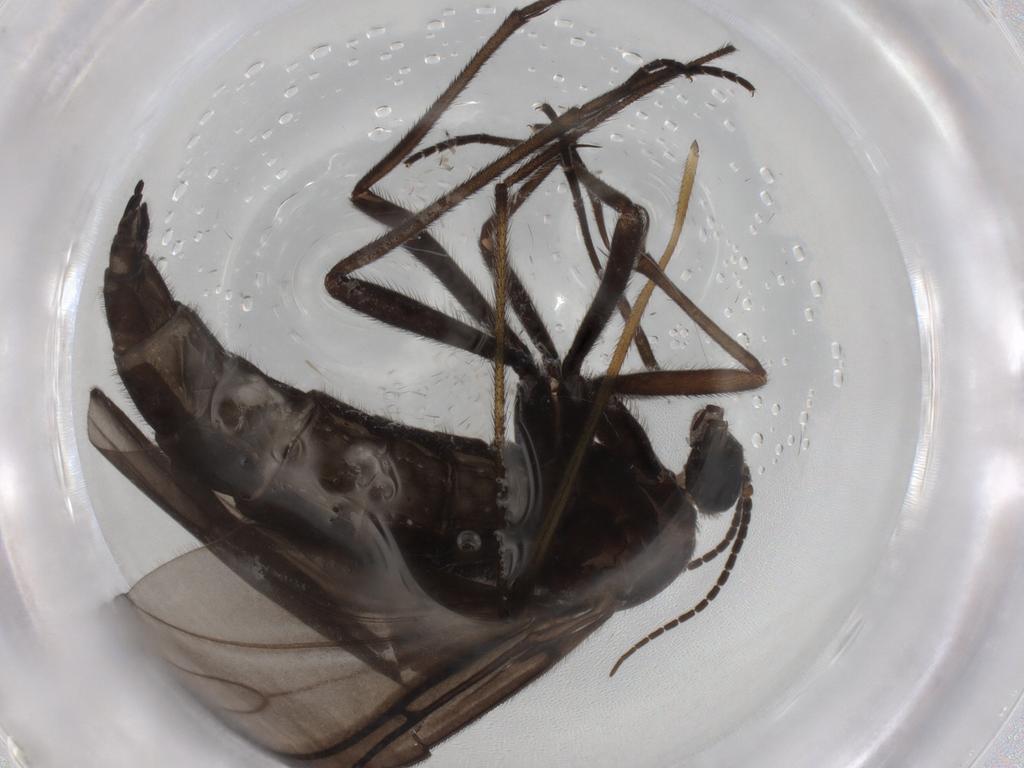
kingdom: Animalia
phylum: Arthropoda
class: Insecta
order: Diptera
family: Limoniidae
